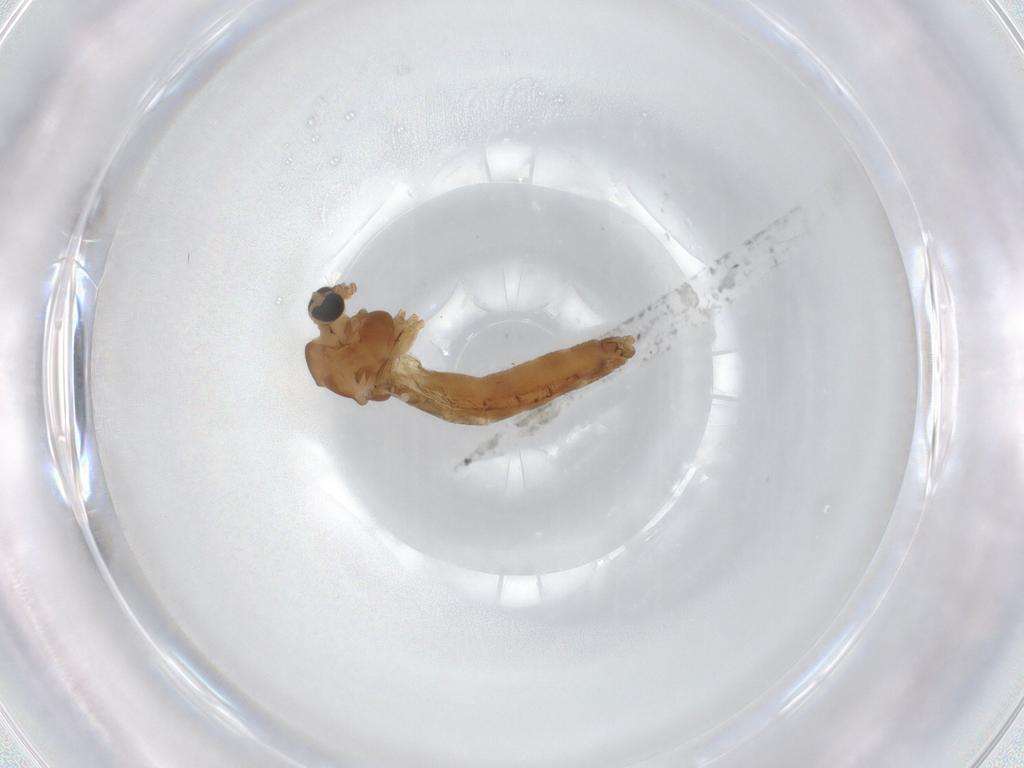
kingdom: Animalia
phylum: Arthropoda
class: Insecta
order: Diptera
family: Chironomidae
